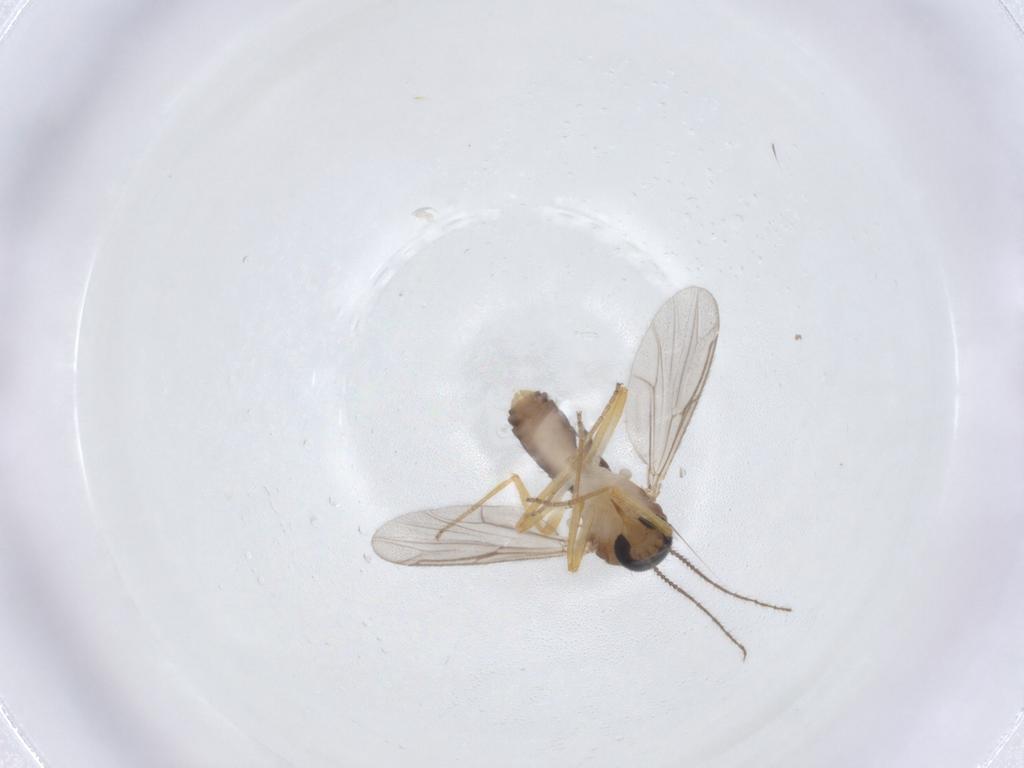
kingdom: Animalia
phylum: Arthropoda
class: Insecta
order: Diptera
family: Ceratopogonidae
